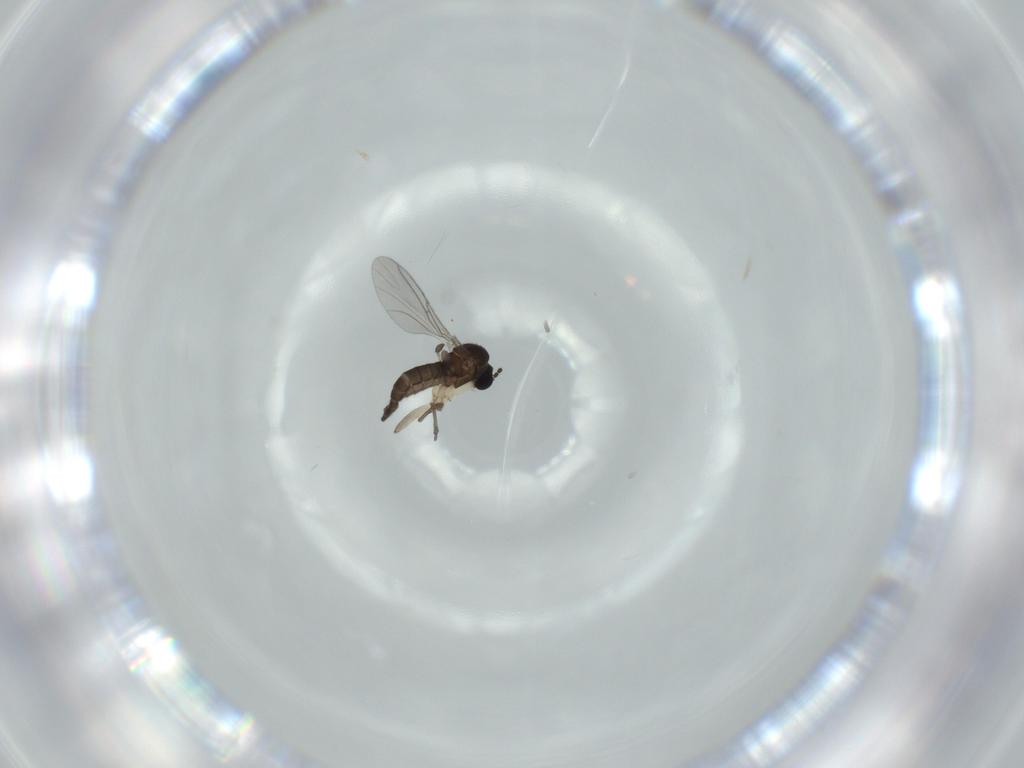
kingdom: Animalia
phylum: Arthropoda
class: Insecta
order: Diptera
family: Sciaridae
